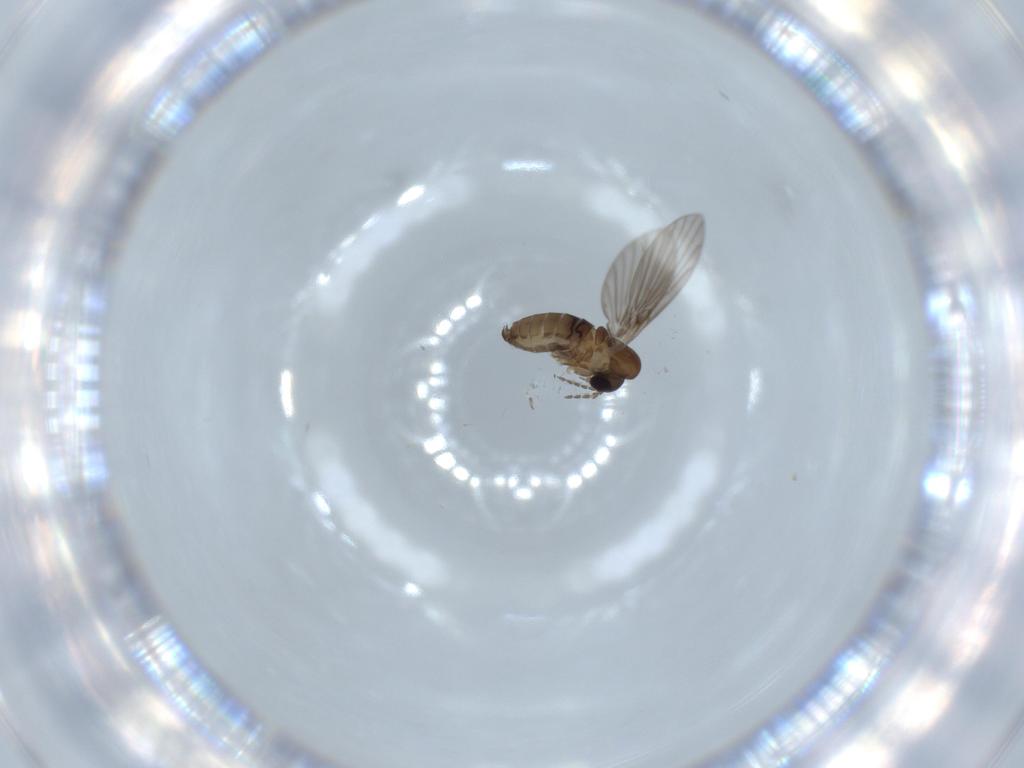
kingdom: Animalia
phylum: Arthropoda
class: Insecta
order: Diptera
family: Psychodidae
